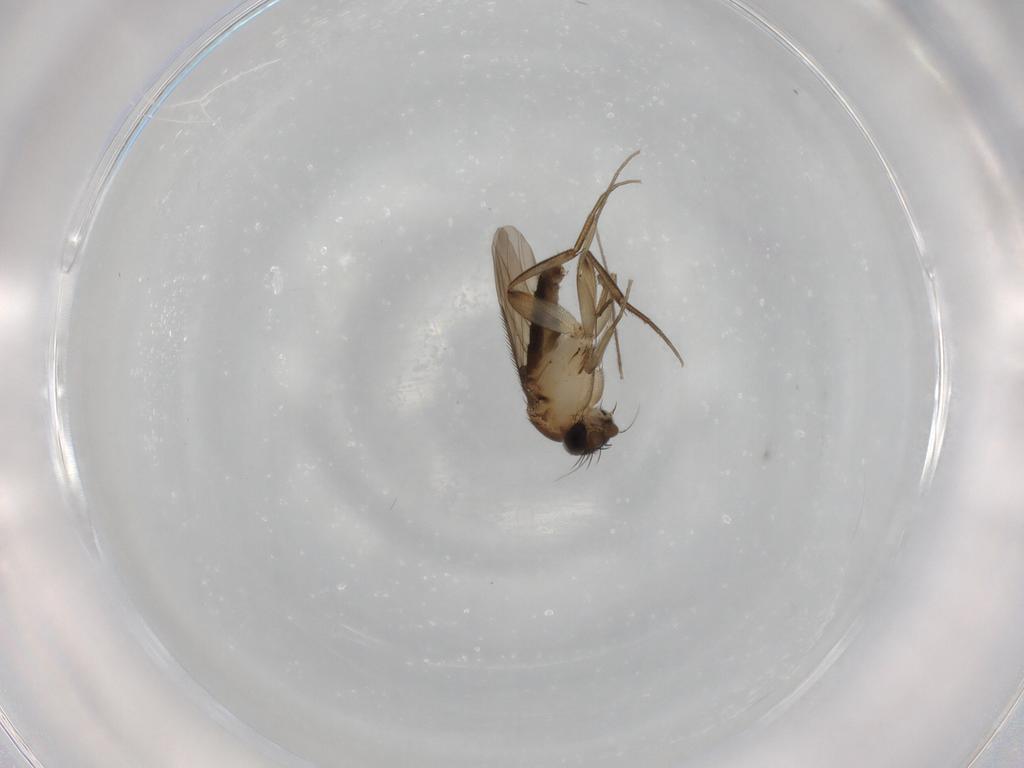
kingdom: Animalia
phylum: Arthropoda
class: Insecta
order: Diptera
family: Phoridae
